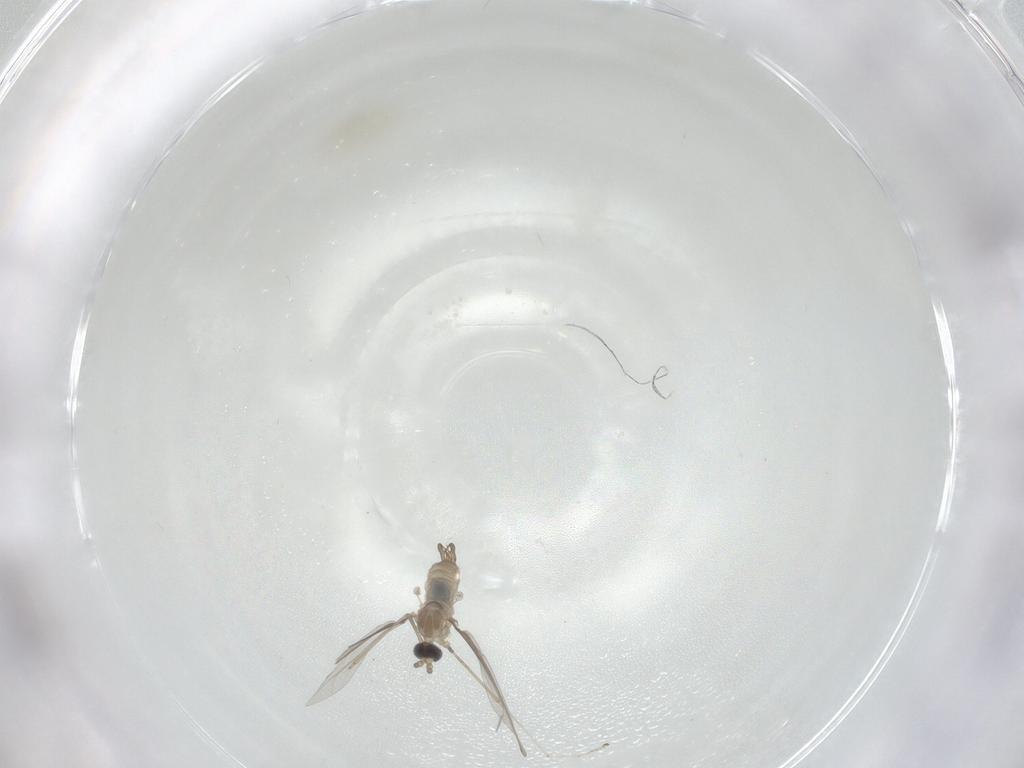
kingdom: Animalia
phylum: Arthropoda
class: Insecta
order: Diptera
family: Cecidomyiidae
